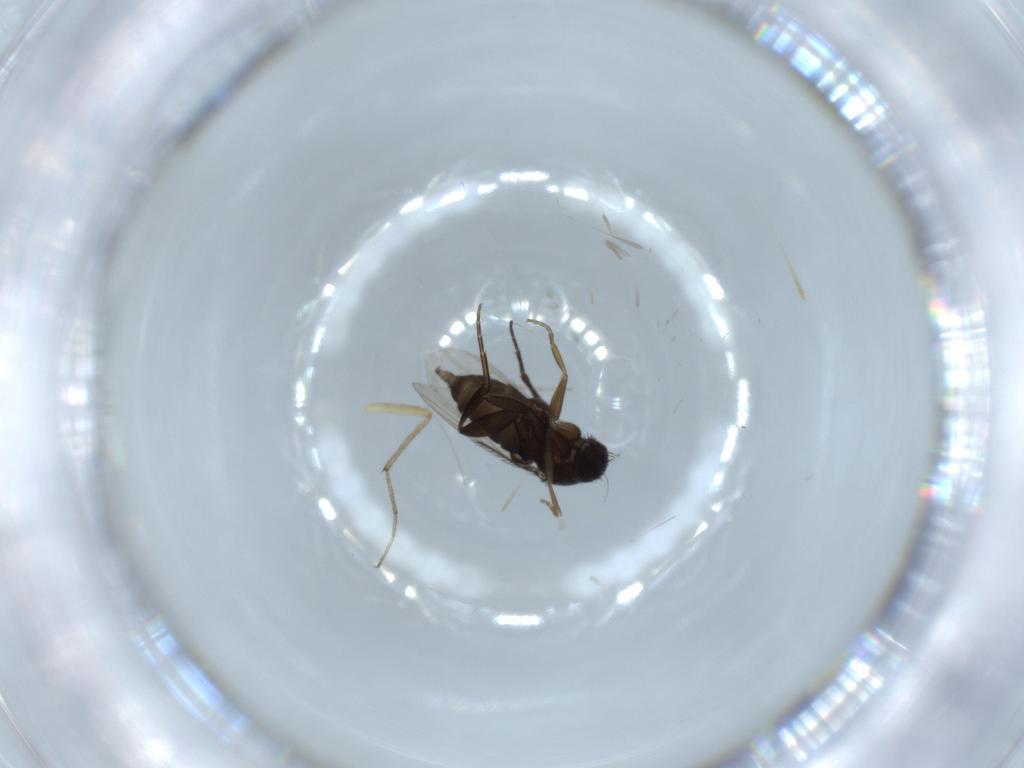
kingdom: Animalia
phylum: Arthropoda
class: Insecta
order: Diptera
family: Phoridae
